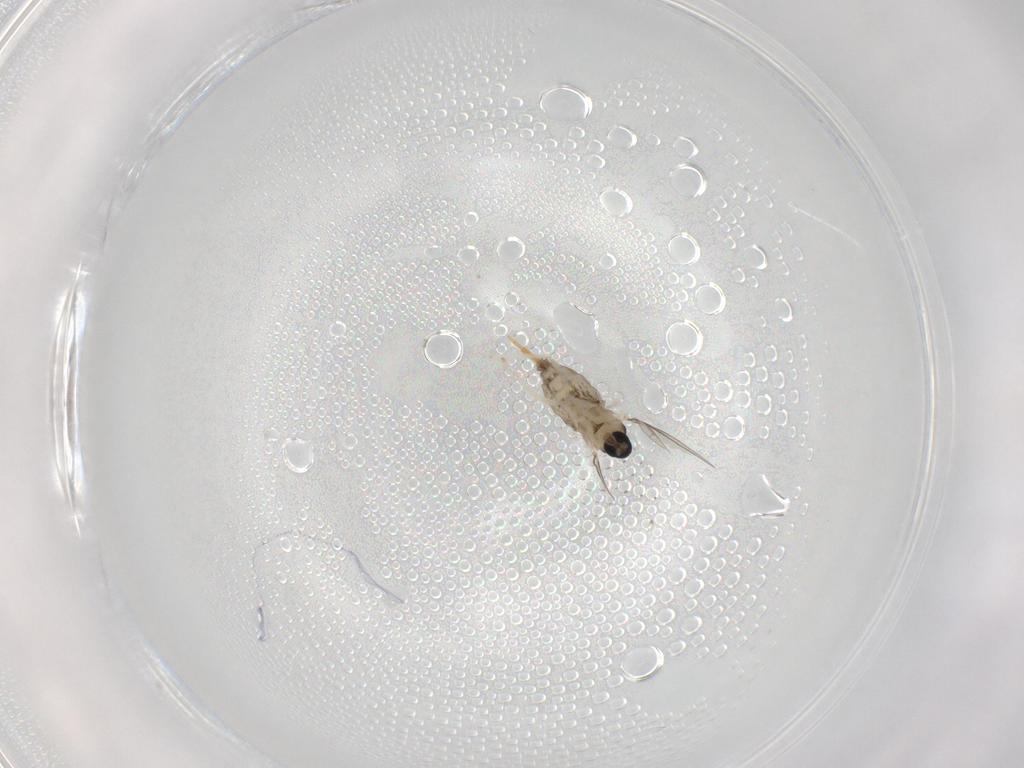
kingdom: Animalia
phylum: Arthropoda
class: Insecta
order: Diptera
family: Cecidomyiidae
